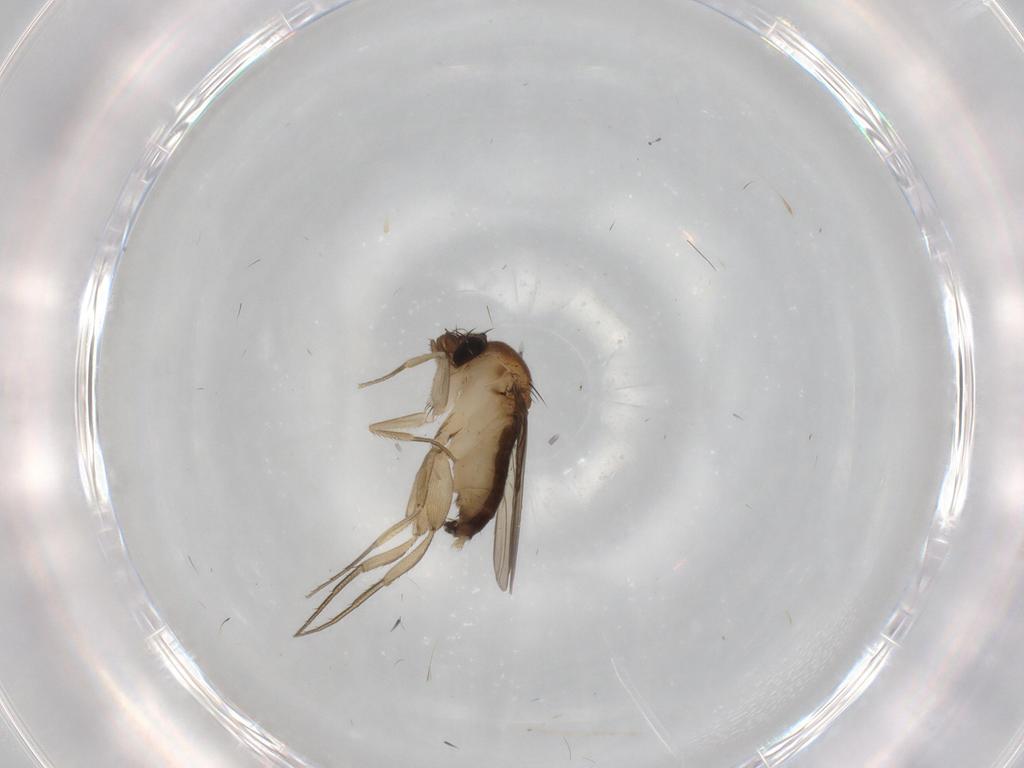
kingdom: Animalia
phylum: Arthropoda
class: Insecta
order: Diptera
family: Phoridae
